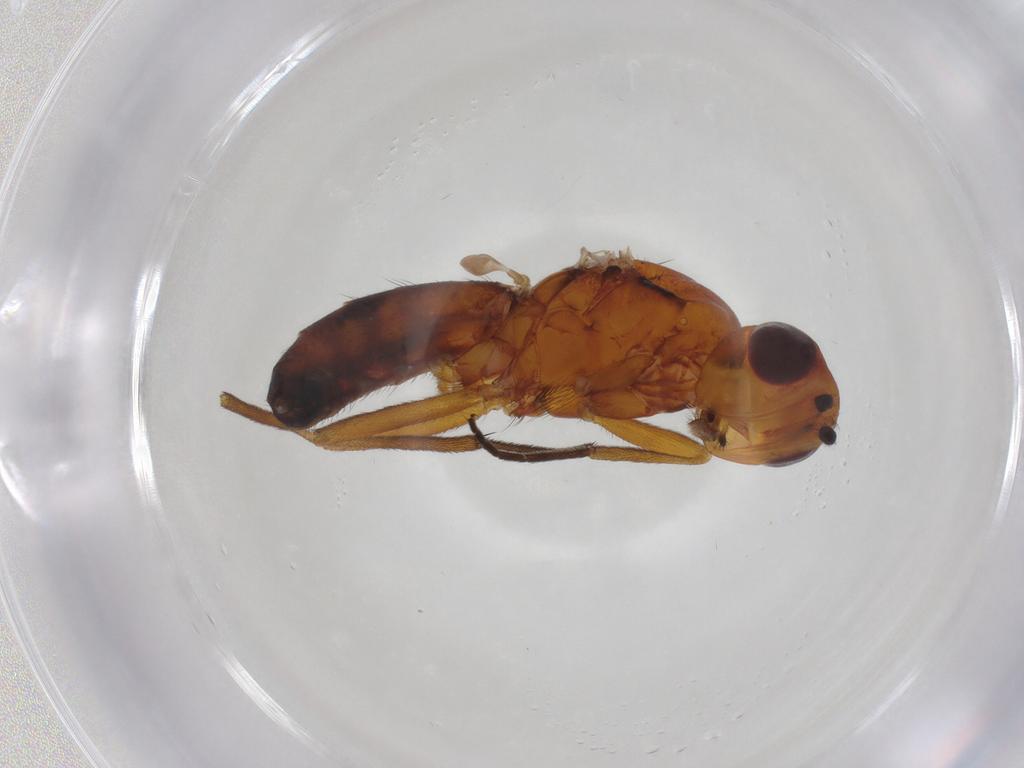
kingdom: Animalia
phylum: Arthropoda
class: Insecta
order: Diptera
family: Psilidae
